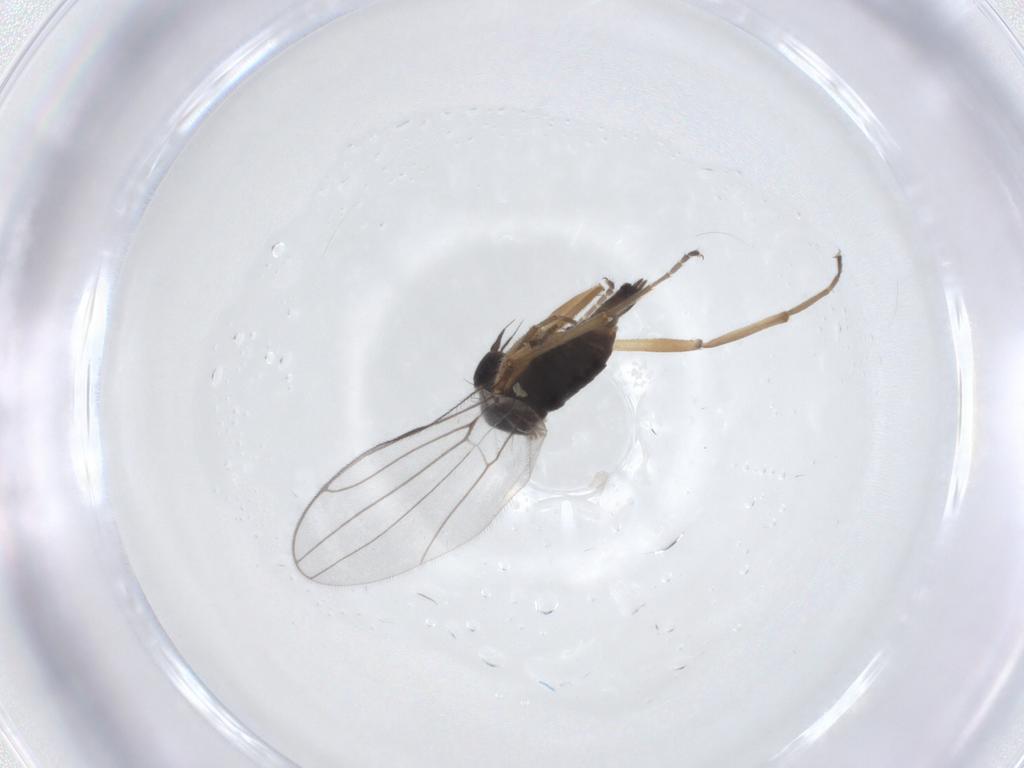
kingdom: Animalia
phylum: Arthropoda
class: Insecta
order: Diptera
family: Hybotidae
